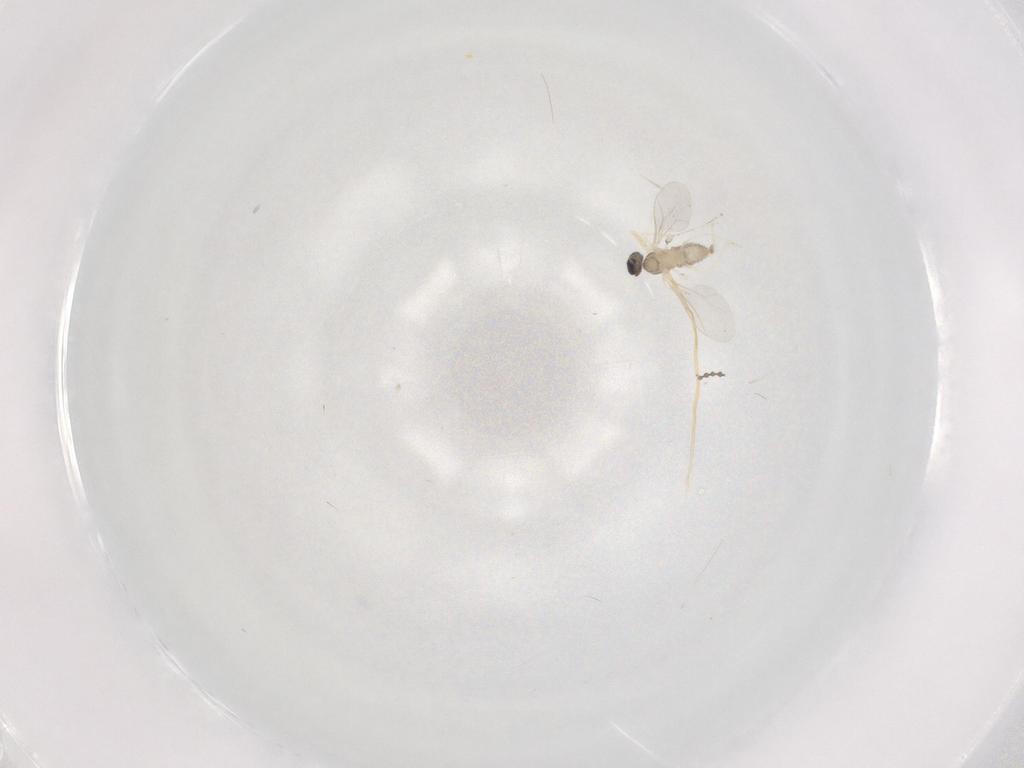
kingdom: Animalia
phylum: Arthropoda
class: Insecta
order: Diptera
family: Cecidomyiidae
